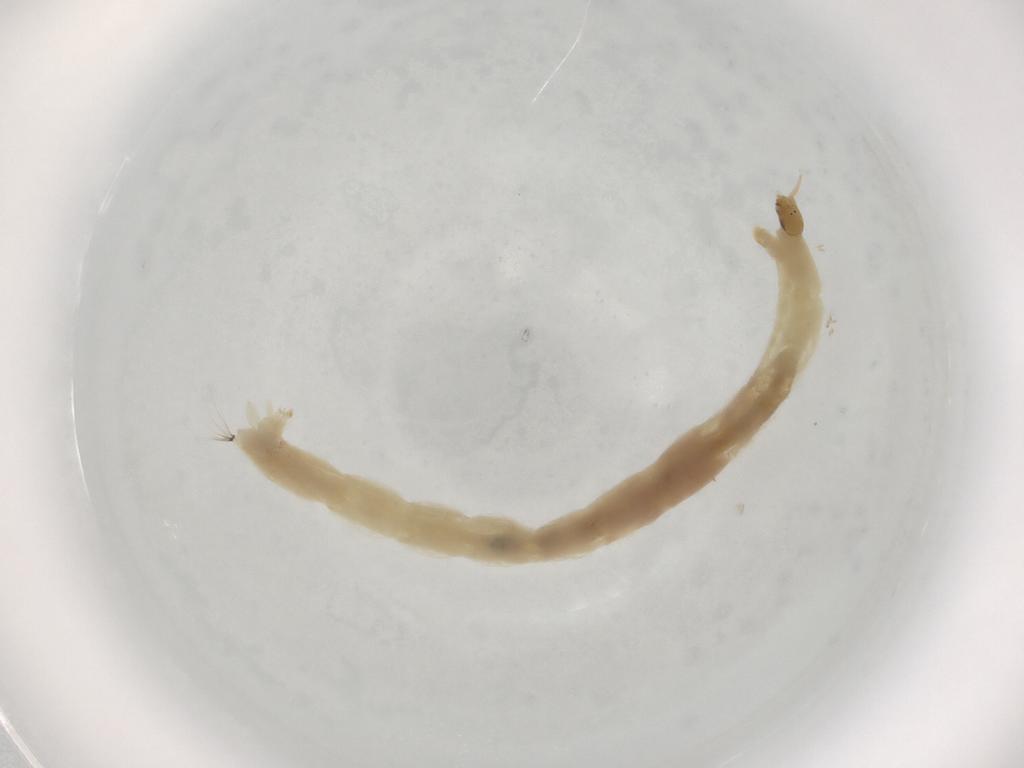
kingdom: Animalia
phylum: Arthropoda
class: Insecta
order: Diptera
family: Chironomidae
